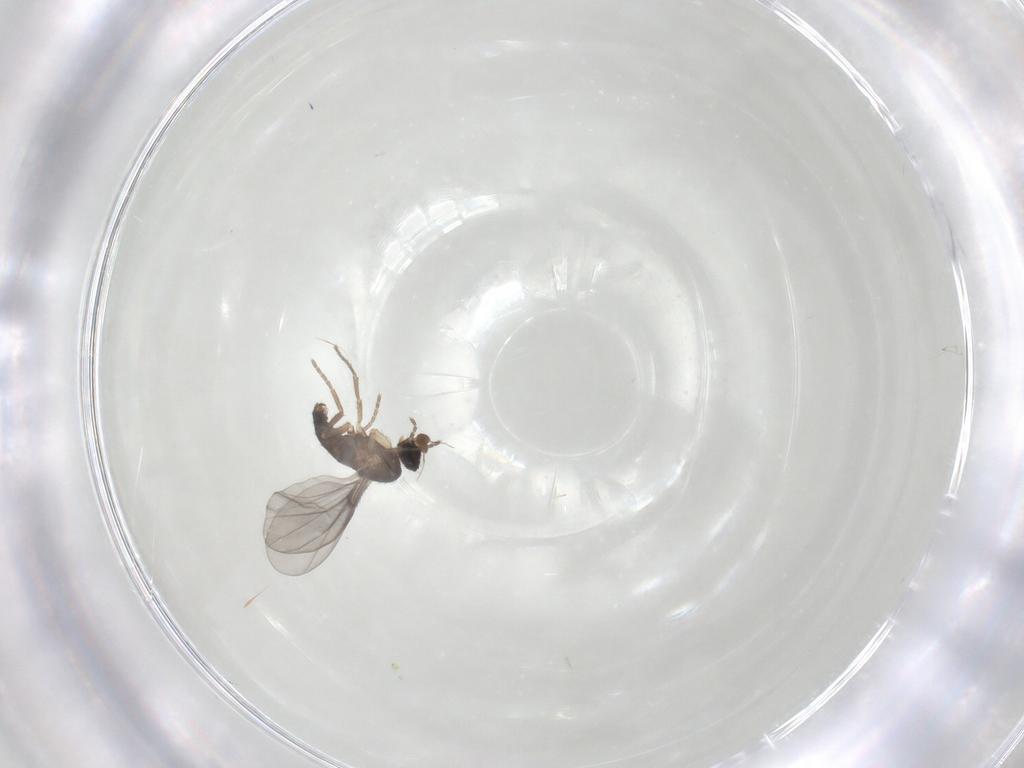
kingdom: Animalia
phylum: Arthropoda
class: Insecta
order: Diptera
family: Phoridae
